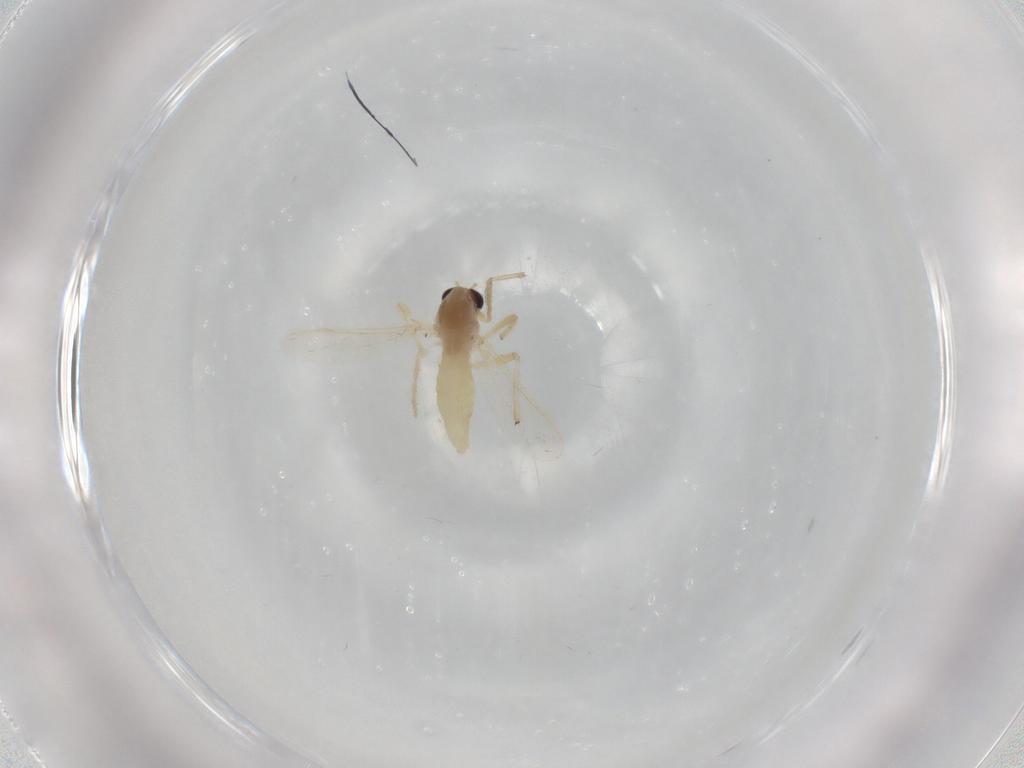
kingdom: Animalia
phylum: Arthropoda
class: Insecta
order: Diptera
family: Chironomidae
